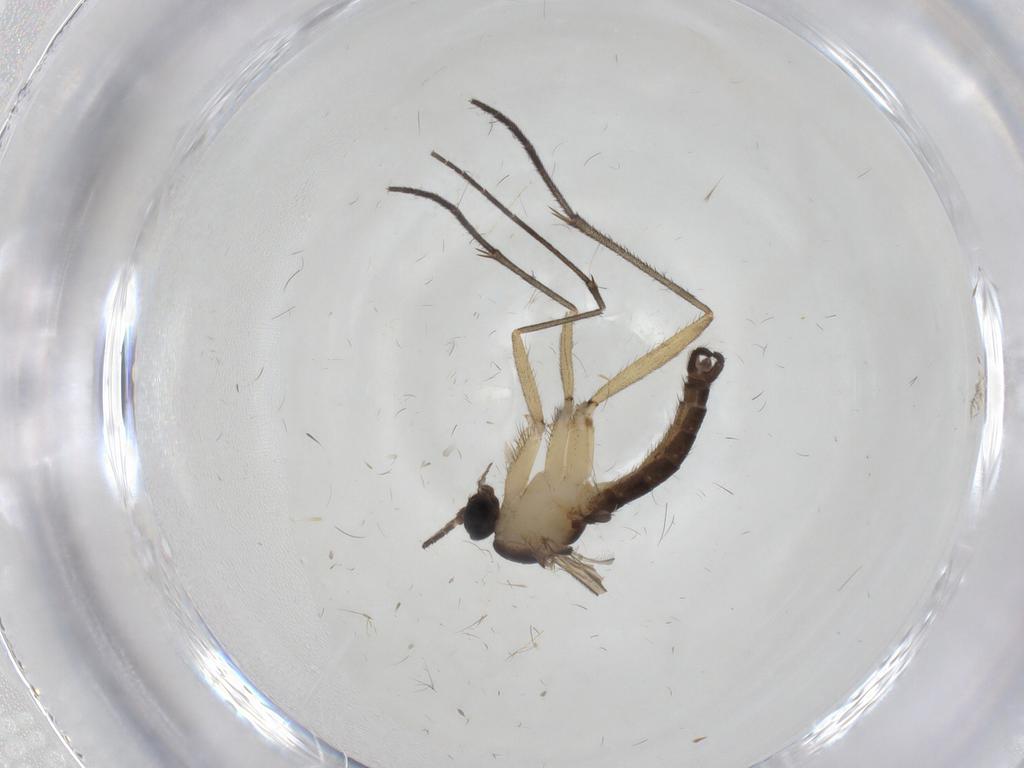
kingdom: Animalia
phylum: Arthropoda
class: Insecta
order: Diptera
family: Sciaridae
